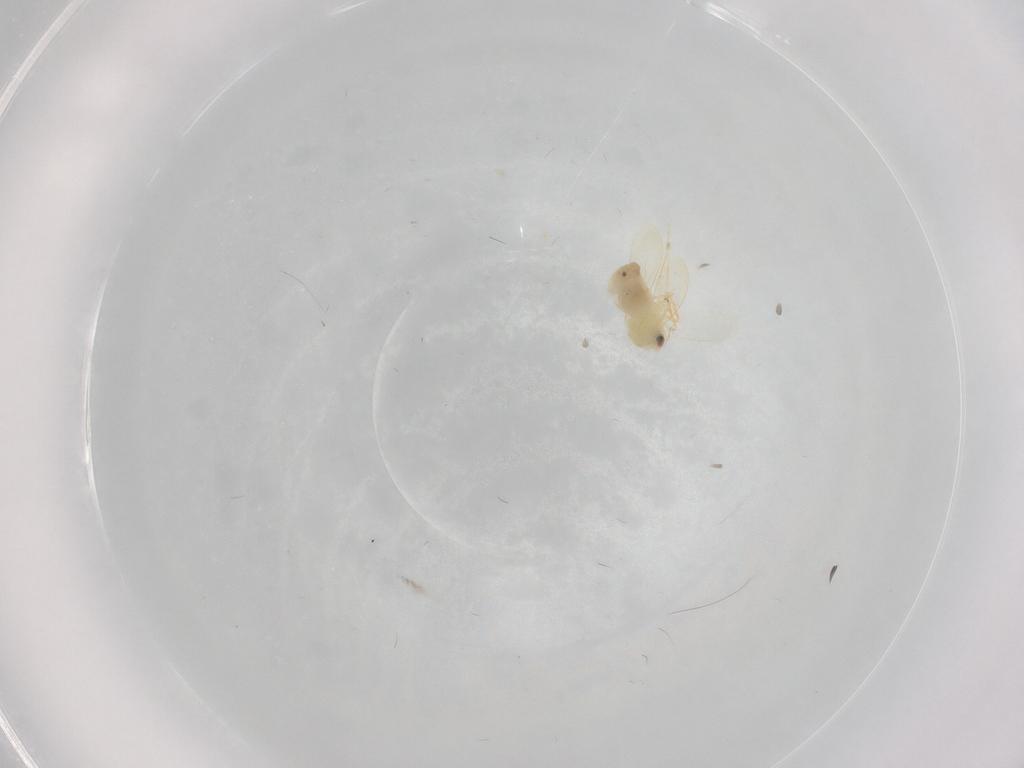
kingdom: Animalia
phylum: Arthropoda
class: Insecta
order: Hemiptera
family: Aleyrodidae
